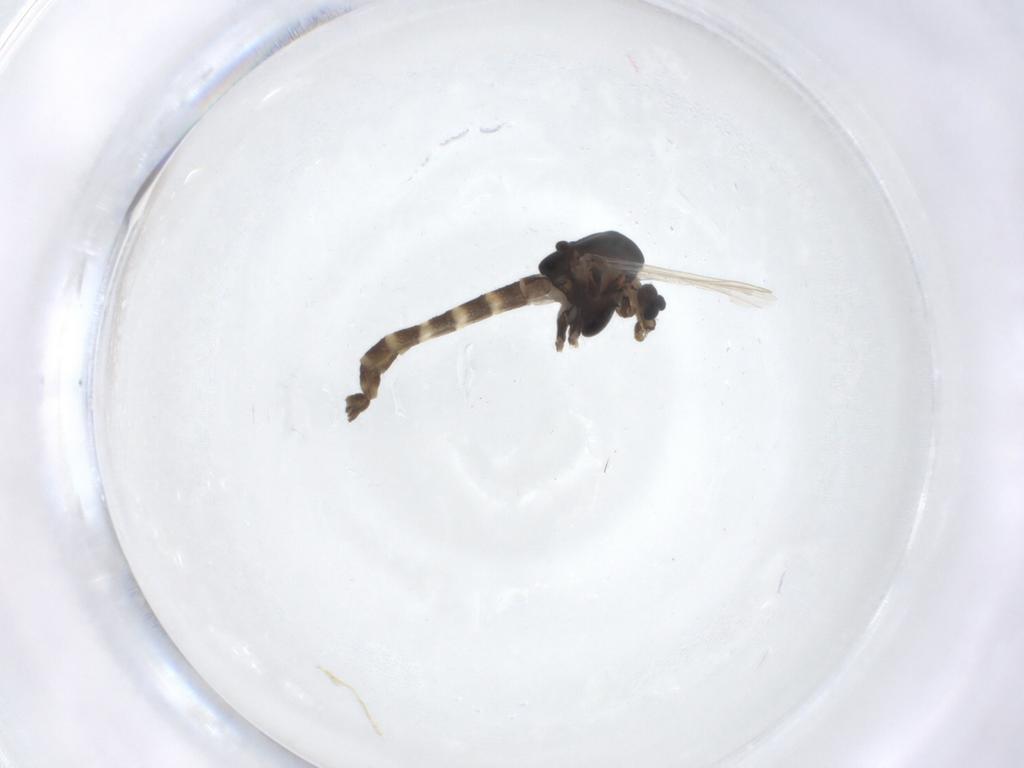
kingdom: Animalia
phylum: Arthropoda
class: Insecta
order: Diptera
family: Chironomidae
